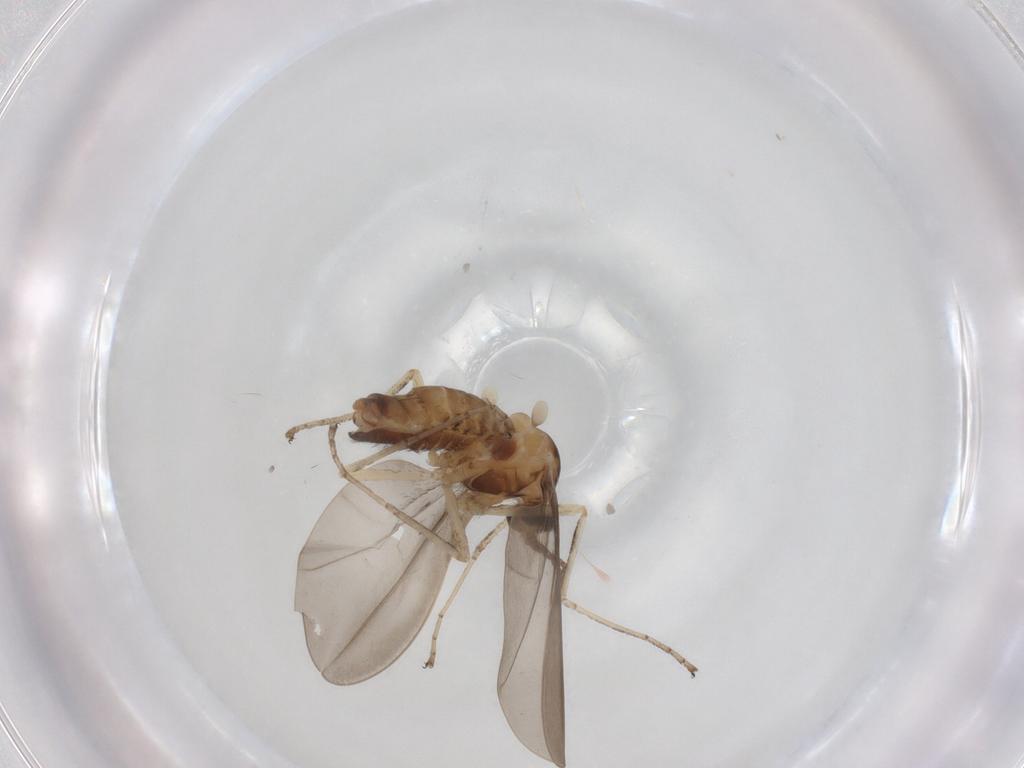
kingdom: Animalia
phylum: Arthropoda
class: Insecta
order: Diptera
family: Cecidomyiidae
